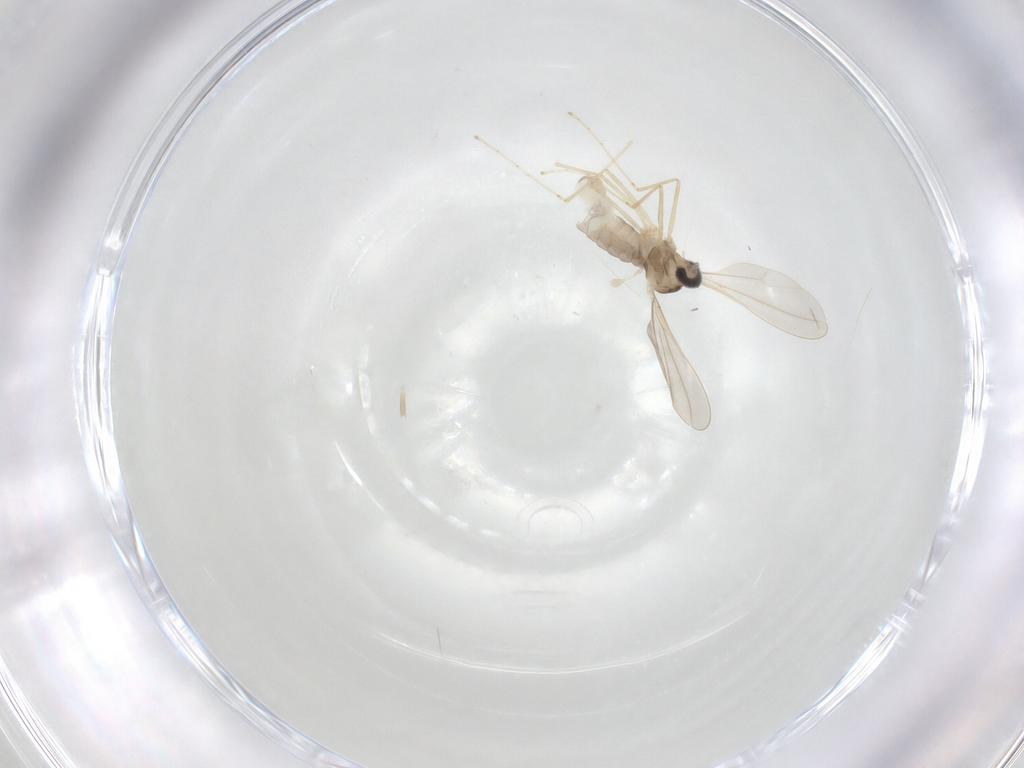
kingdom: Animalia
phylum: Arthropoda
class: Insecta
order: Diptera
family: Cecidomyiidae
